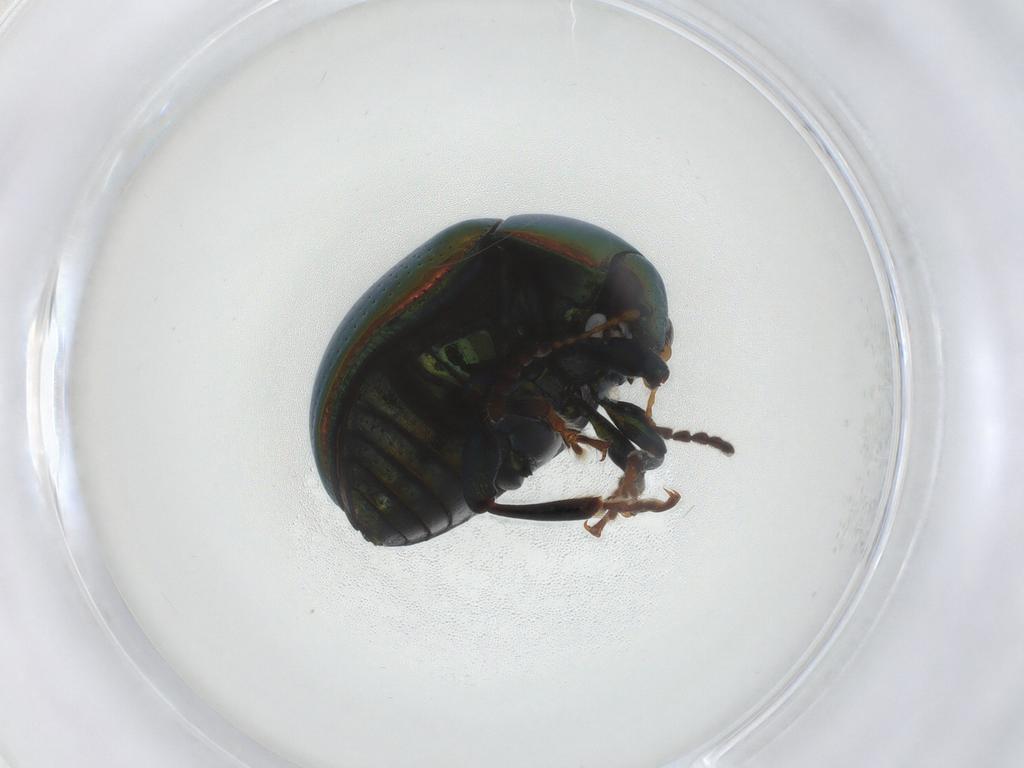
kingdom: Animalia
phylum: Arthropoda
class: Insecta
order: Coleoptera
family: Chrysomelidae
